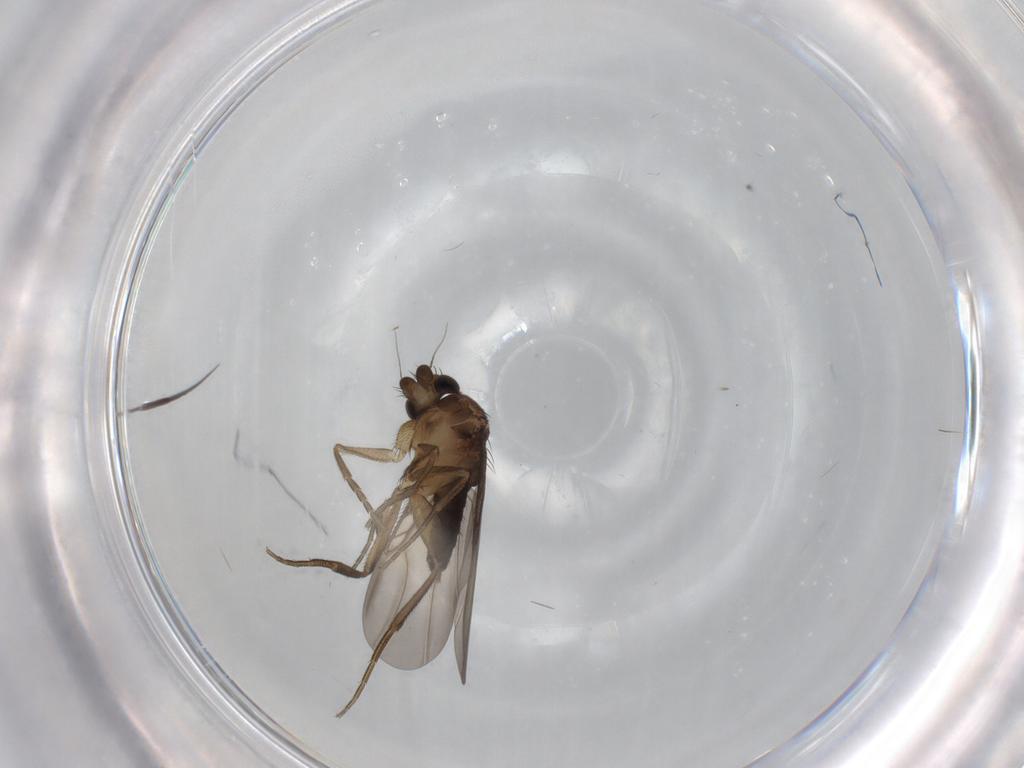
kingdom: Animalia
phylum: Arthropoda
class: Insecta
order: Diptera
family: Phoridae
